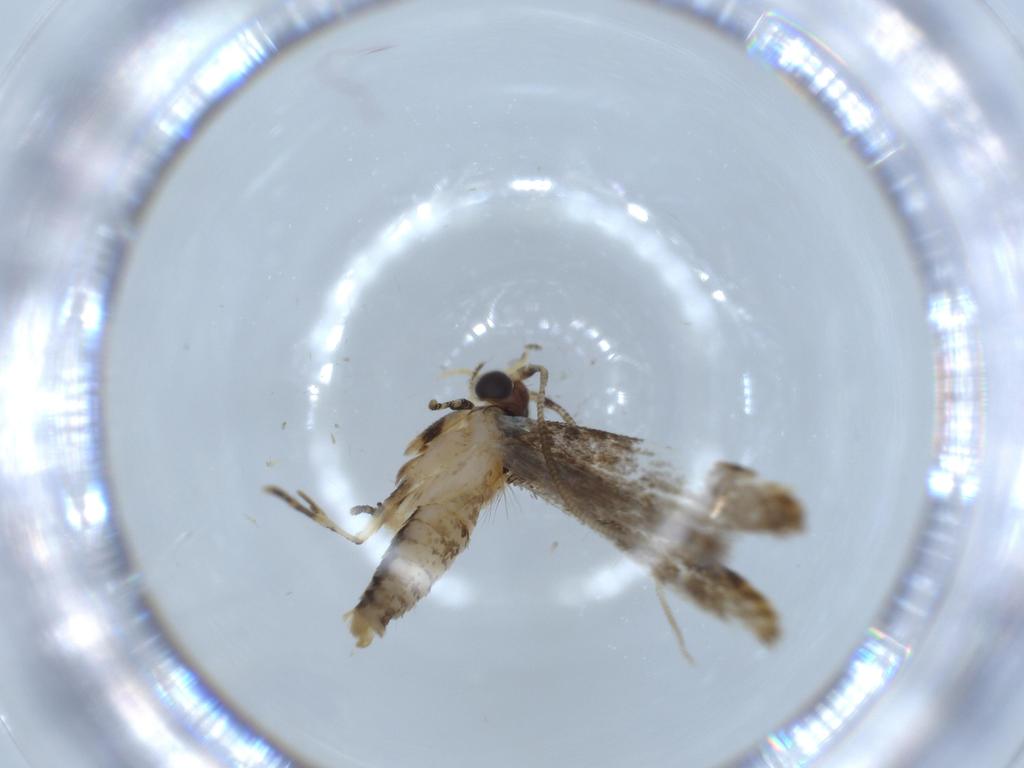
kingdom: Animalia
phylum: Arthropoda
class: Insecta
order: Lepidoptera
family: Tineidae
